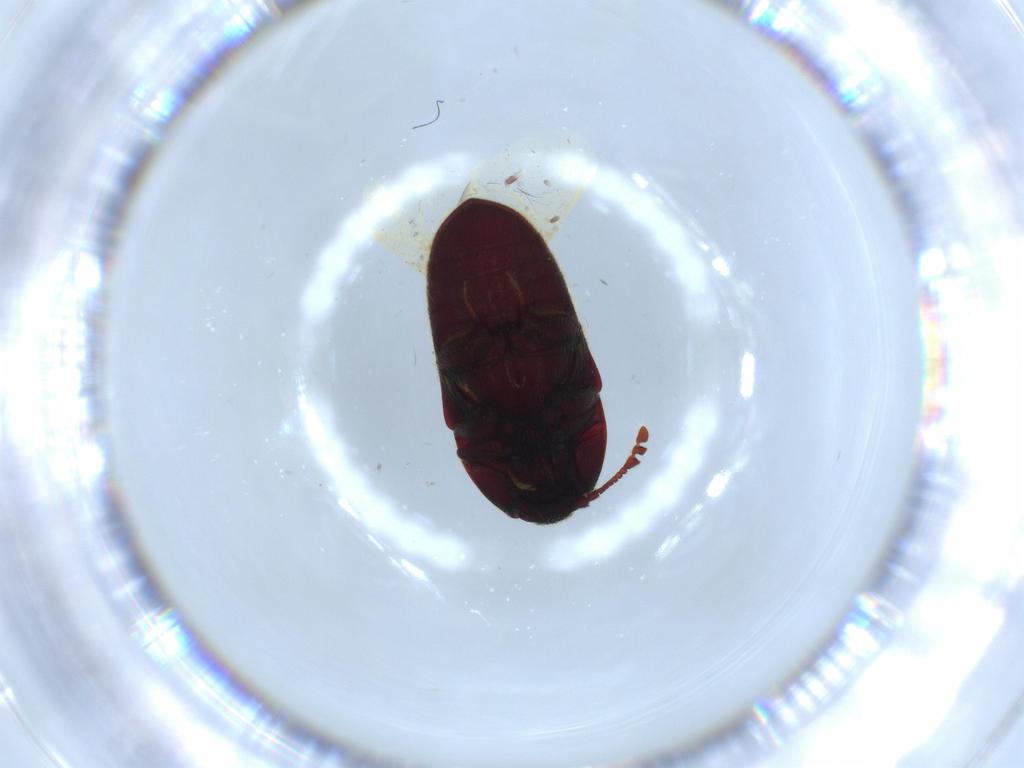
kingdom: Animalia
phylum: Arthropoda
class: Insecta
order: Coleoptera
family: Throscidae
